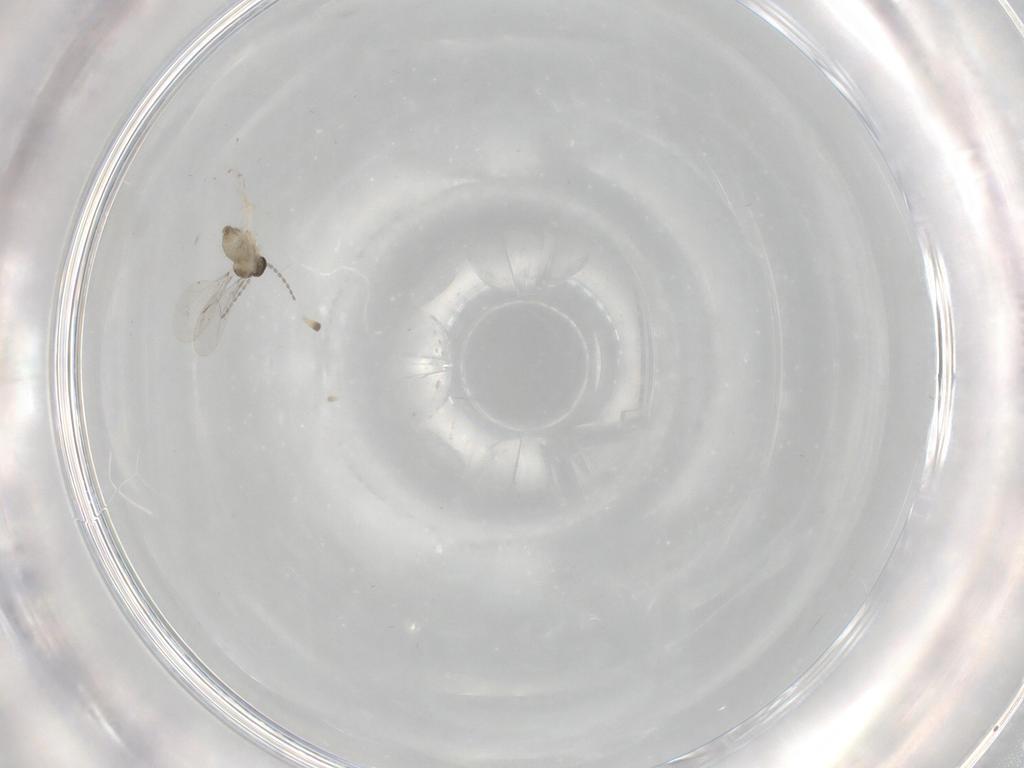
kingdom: Animalia
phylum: Arthropoda
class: Insecta
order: Diptera
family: Cecidomyiidae
